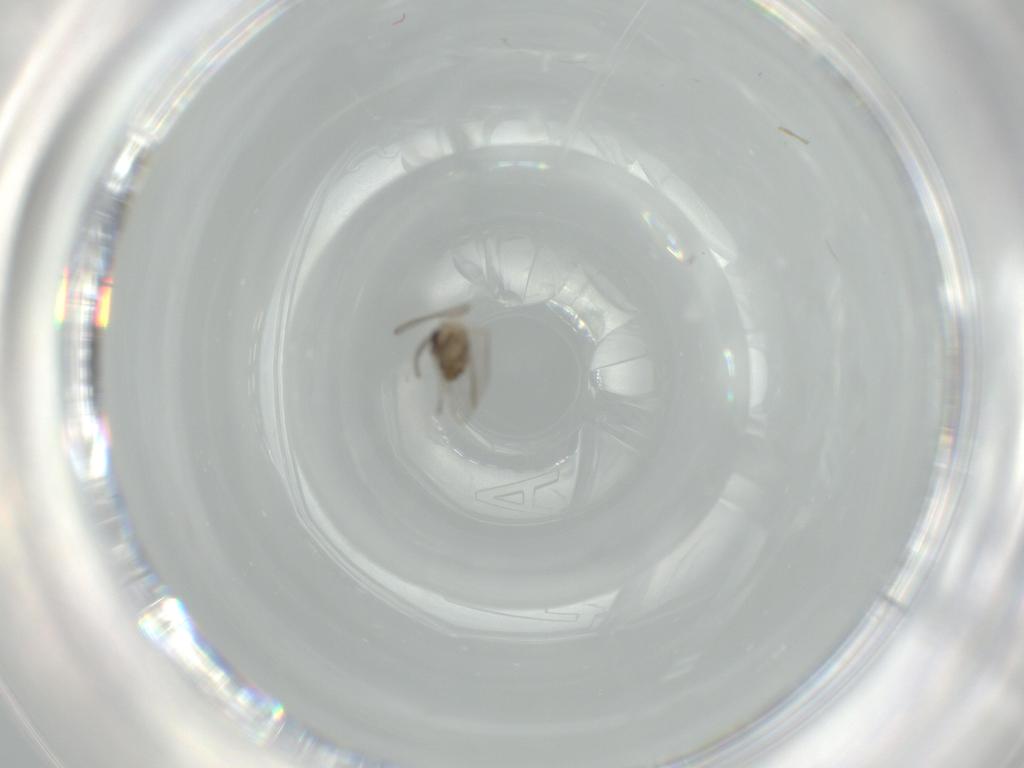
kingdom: Animalia
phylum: Arthropoda
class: Insecta
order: Diptera
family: Psychodidae
